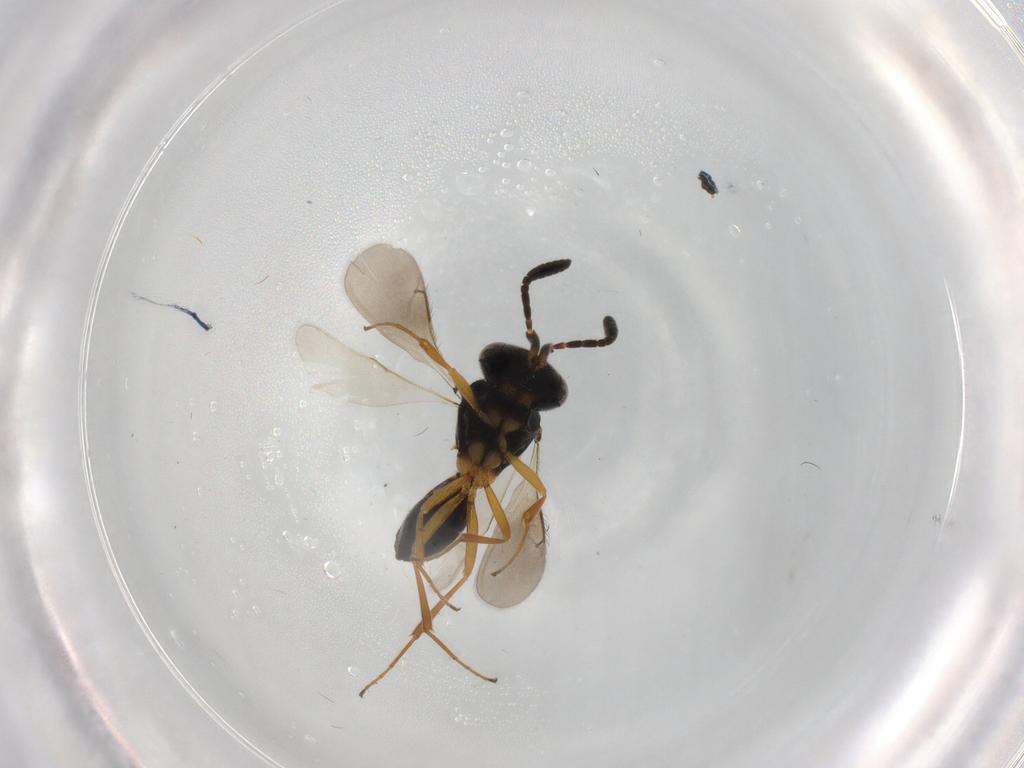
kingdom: Animalia
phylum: Arthropoda
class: Insecta
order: Hymenoptera
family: Scelionidae
